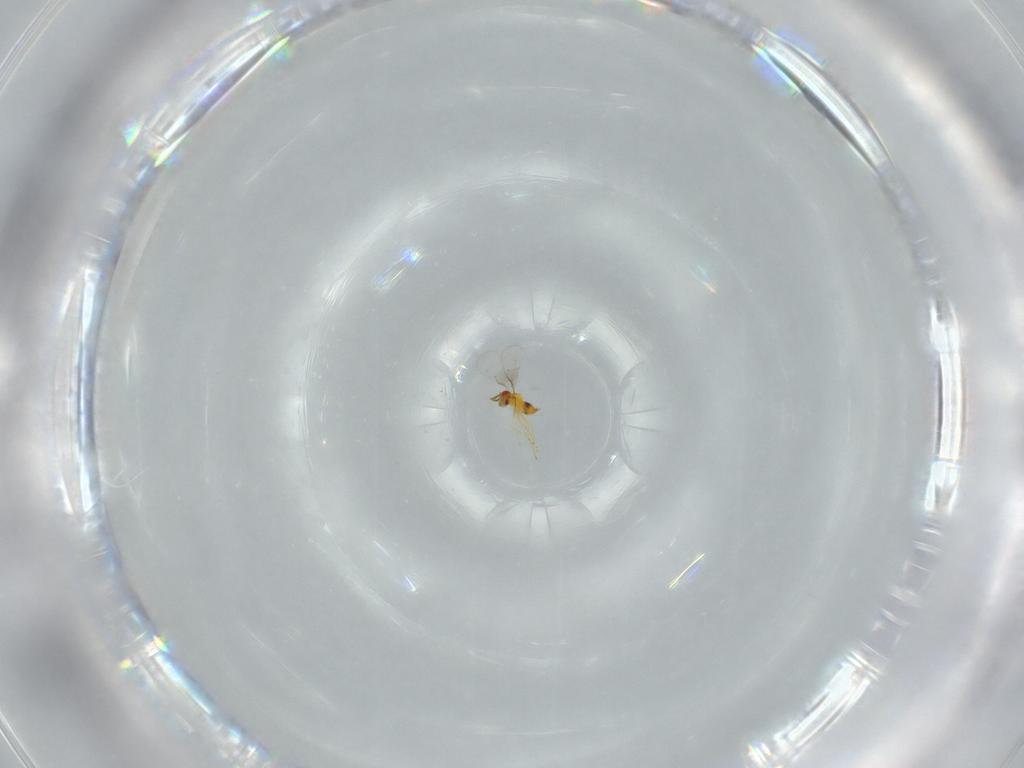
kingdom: Animalia
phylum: Arthropoda
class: Insecta
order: Hymenoptera
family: Trichogrammatidae
